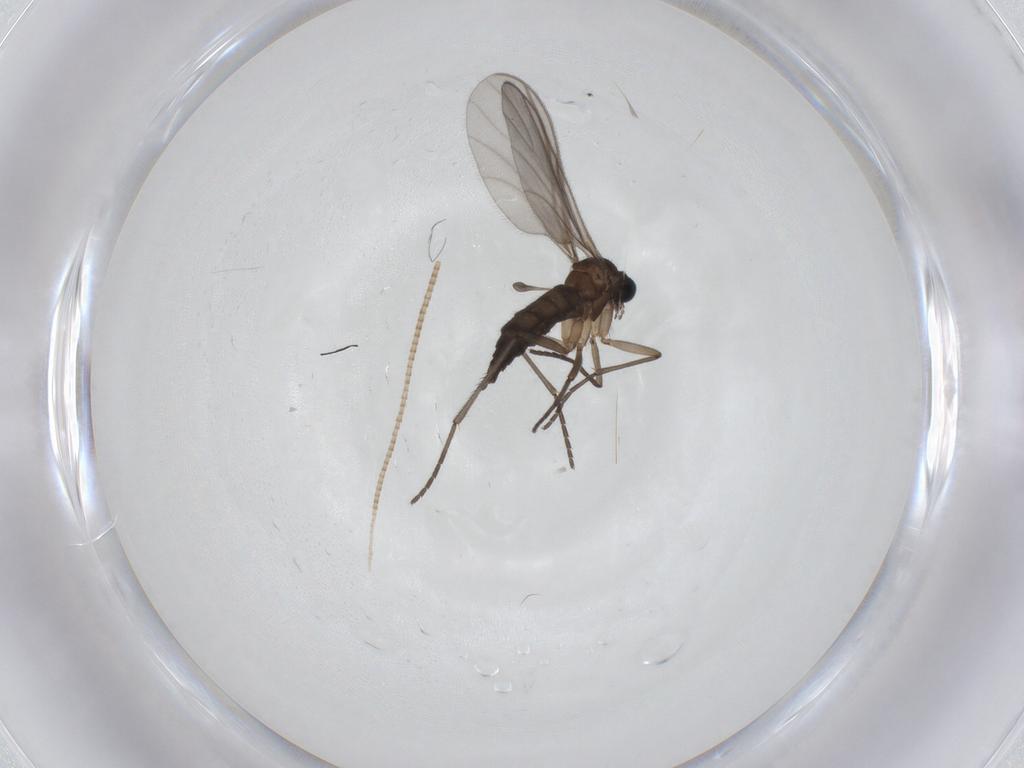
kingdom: Animalia
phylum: Arthropoda
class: Insecta
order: Diptera
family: Sciaridae
